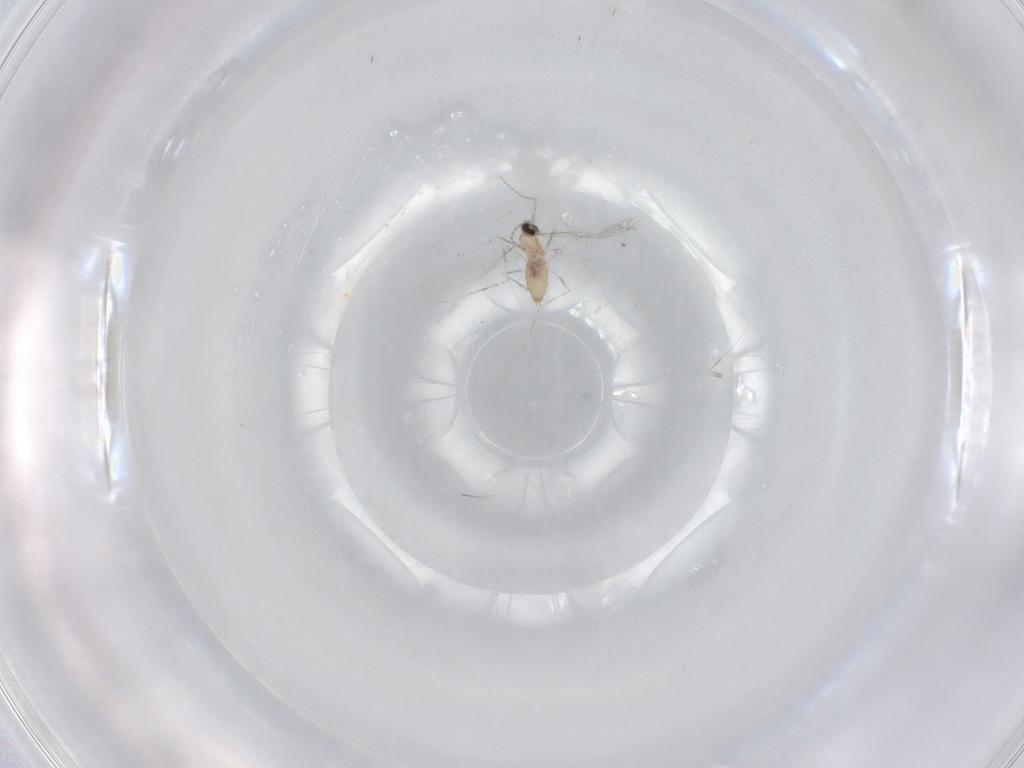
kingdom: Animalia
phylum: Arthropoda
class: Insecta
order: Diptera
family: Cecidomyiidae
